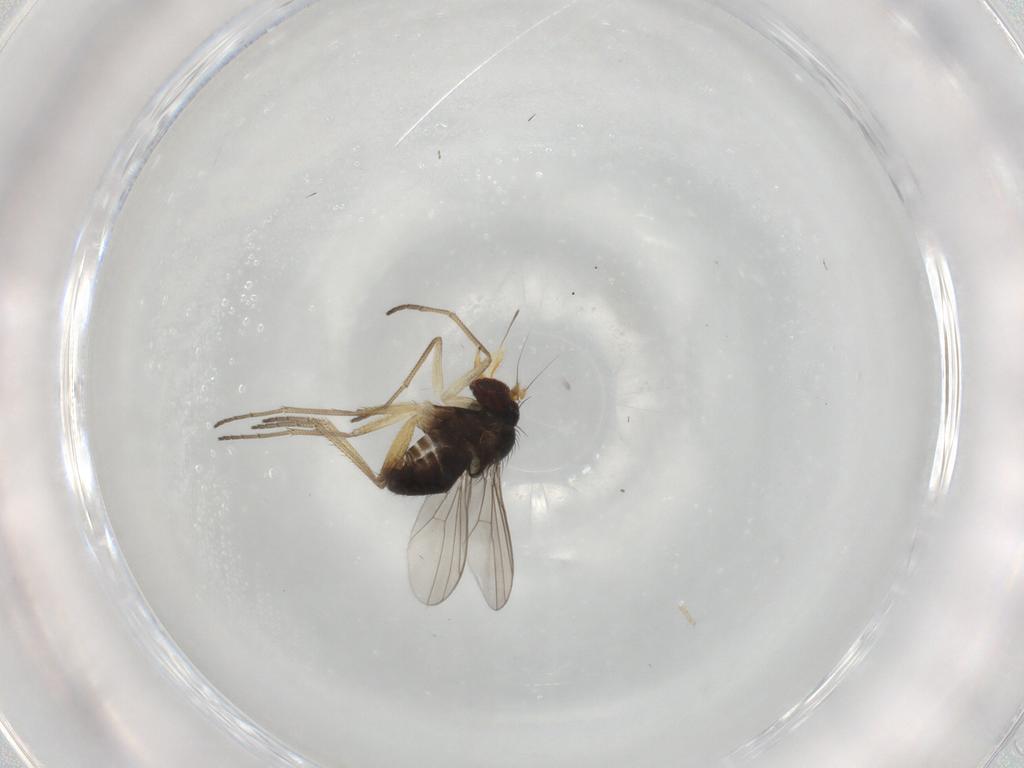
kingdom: Animalia
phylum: Arthropoda
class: Insecta
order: Diptera
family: Dolichopodidae
